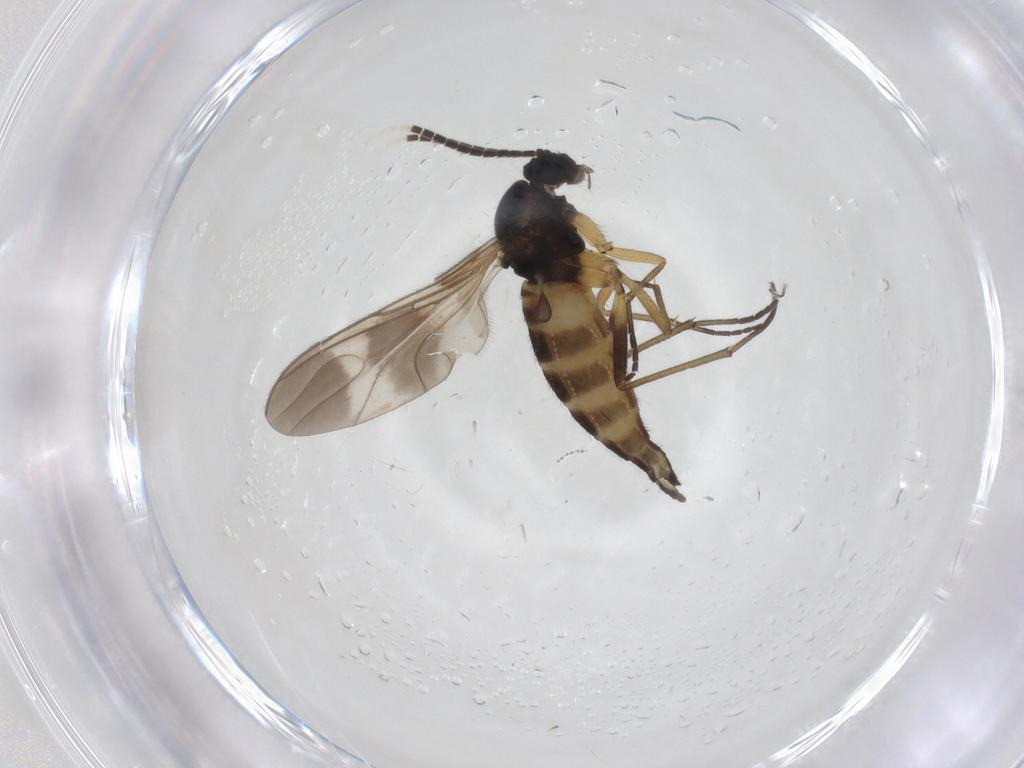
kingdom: Animalia
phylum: Arthropoda
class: Insecta
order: Diptera
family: Sciaridae
